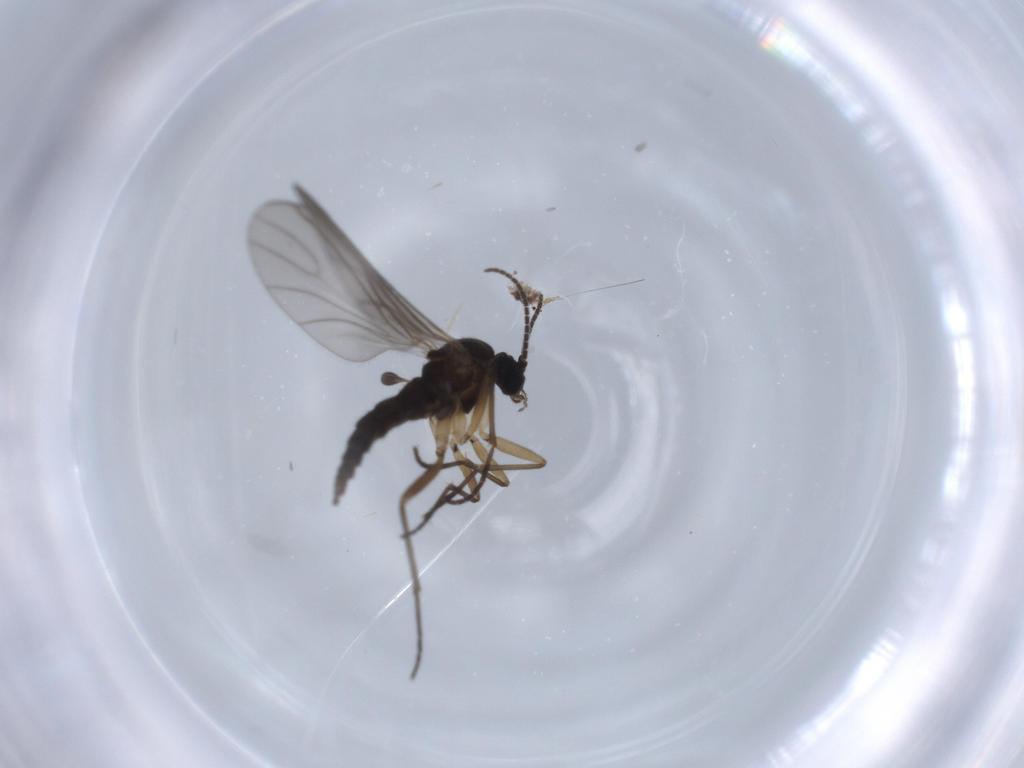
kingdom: Animalia
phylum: Arthropoda
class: Insecta
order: Diptera
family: Sciaridae
